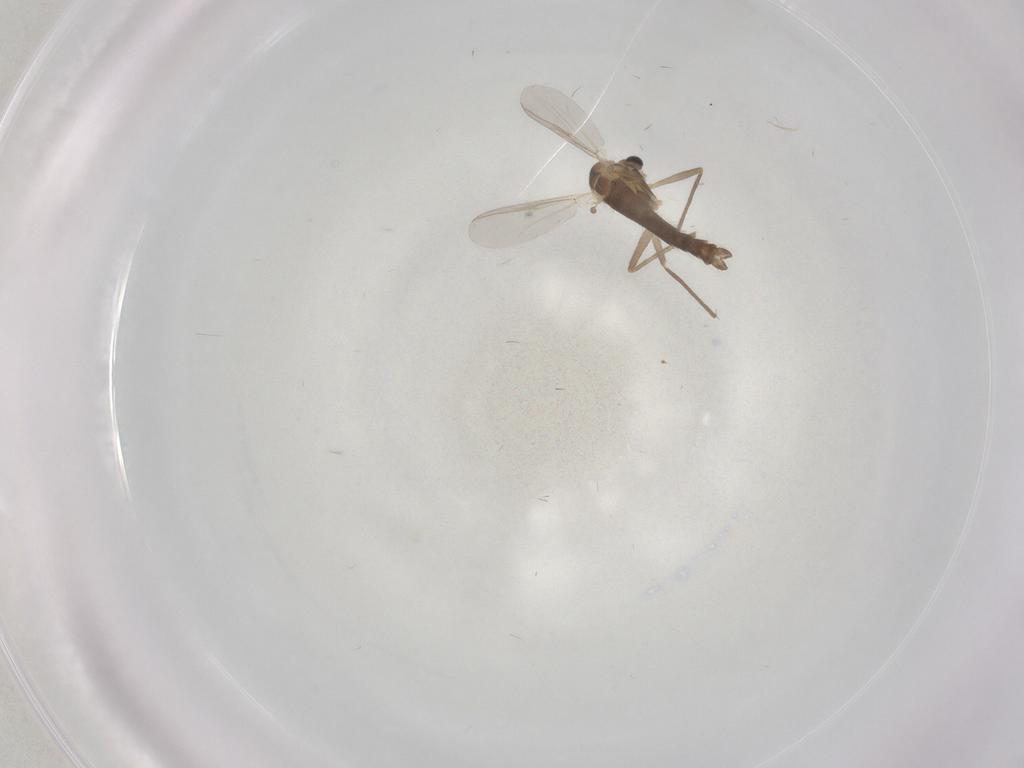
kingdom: Animalia
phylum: Arthropoda
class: Insecta
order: Diptera
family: Chironomidae
